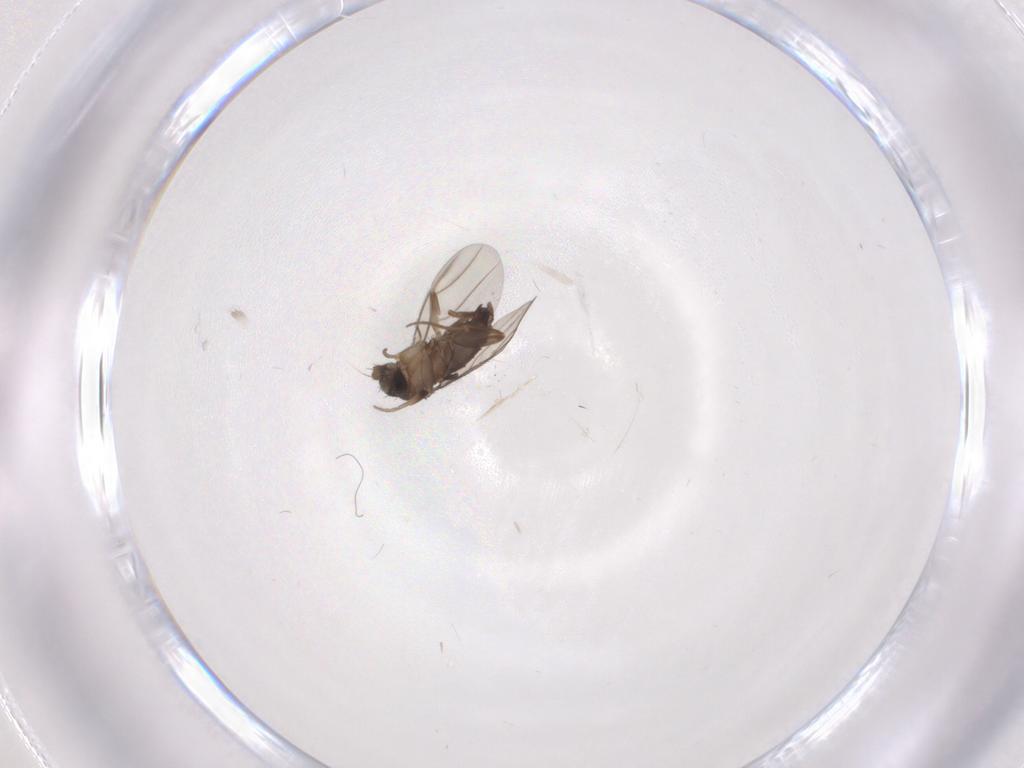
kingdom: Animalia
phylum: Arthropoda
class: Insecta
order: Diptera
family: Phoridae
